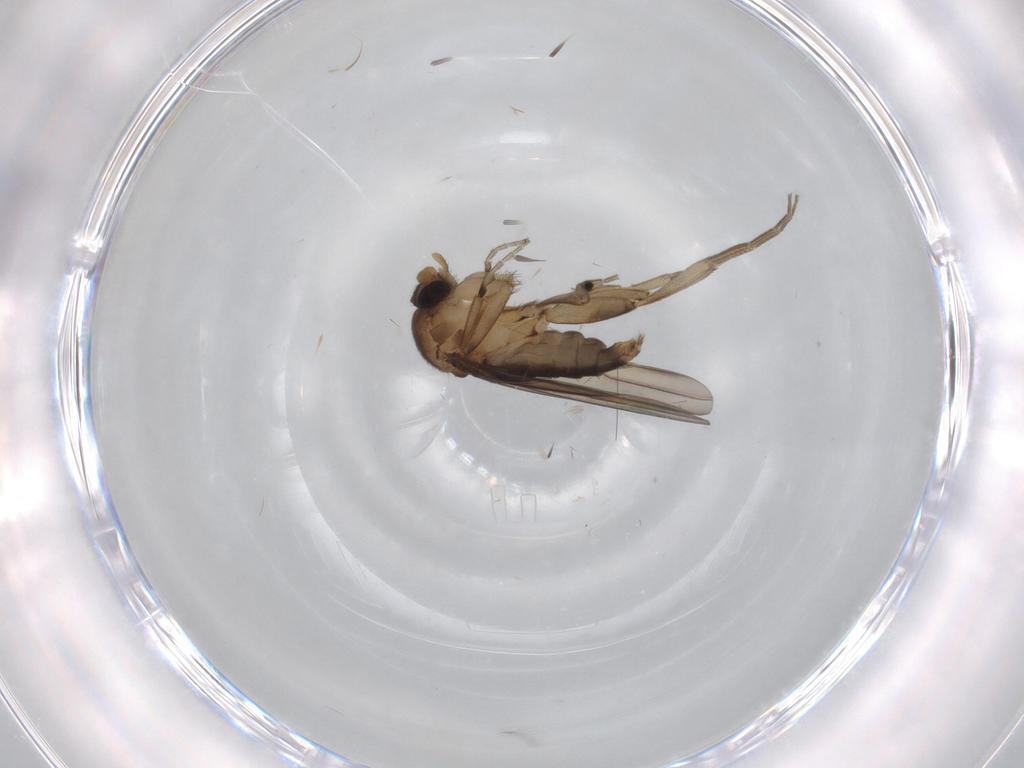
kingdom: Animalia
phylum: Arthropoda
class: Insecta
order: Diptera
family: Phoridae
